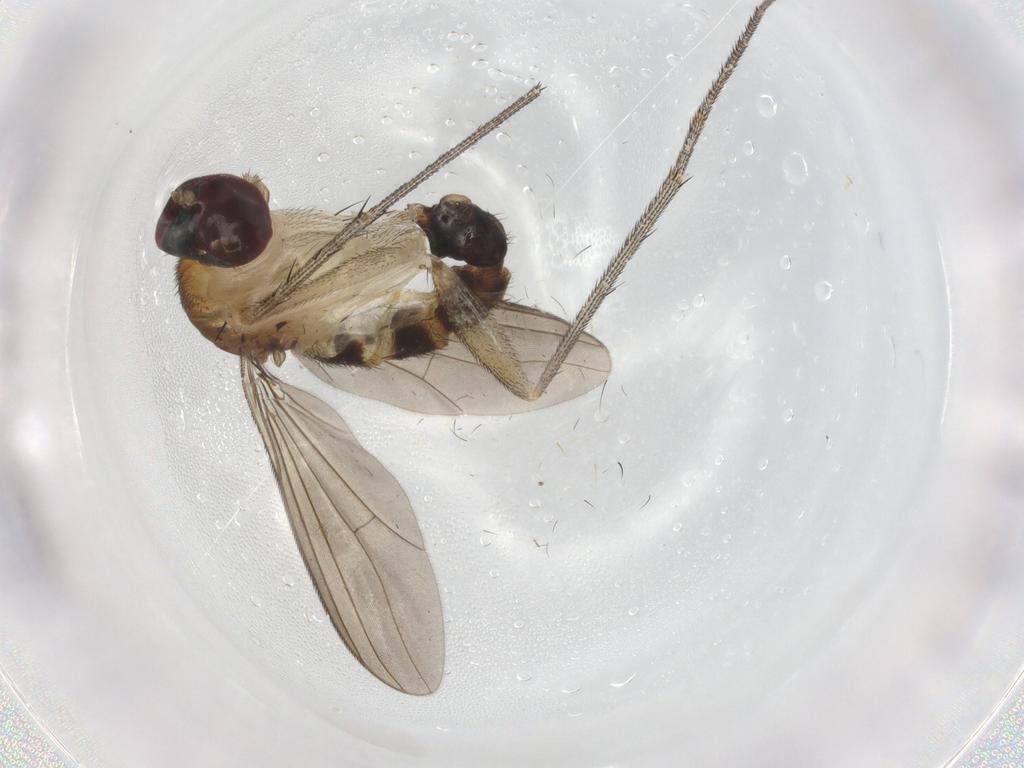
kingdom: Animalia
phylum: Arthropoda
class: Insecta
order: Diptera
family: Dolichopodidae
